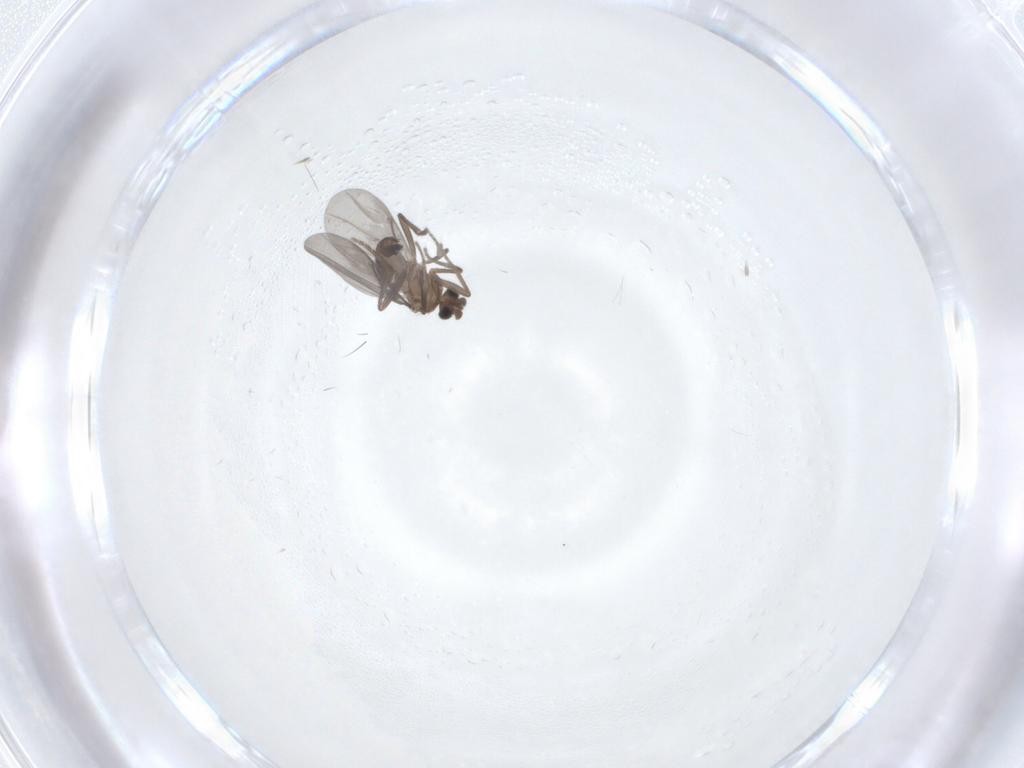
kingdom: Animalia
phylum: Arthropoda
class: Insecta
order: Diptera
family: Phoridae
